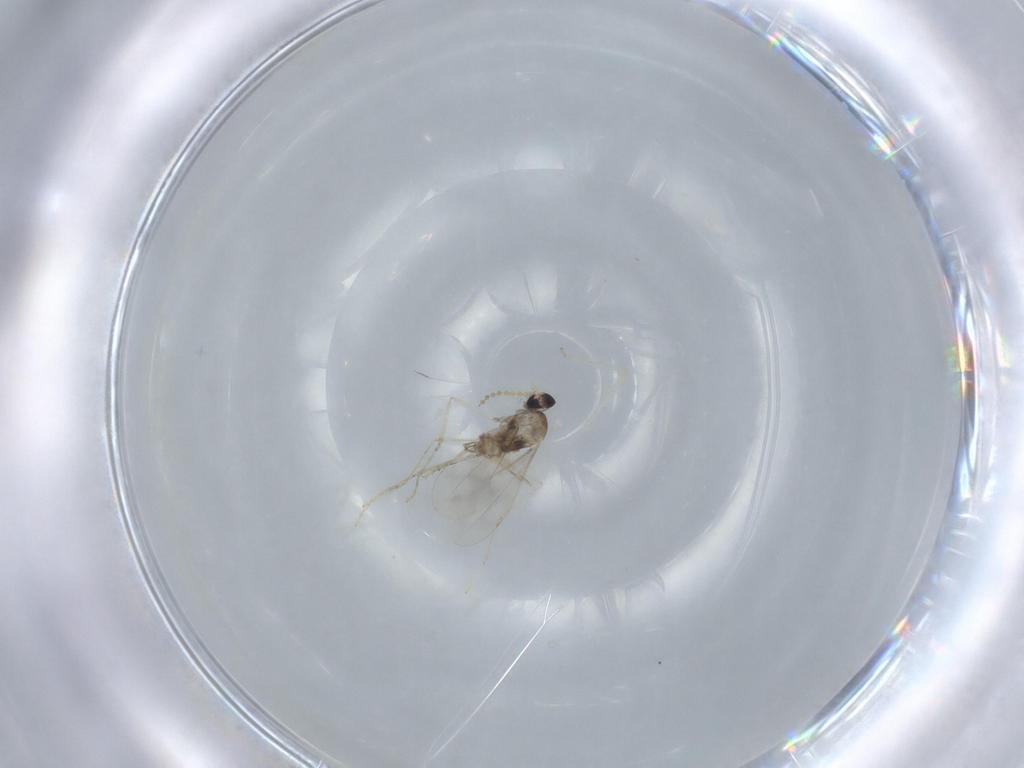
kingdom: Animalia
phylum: Arthropoda
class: Insecta
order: Diptera
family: Cecidomyiidae
